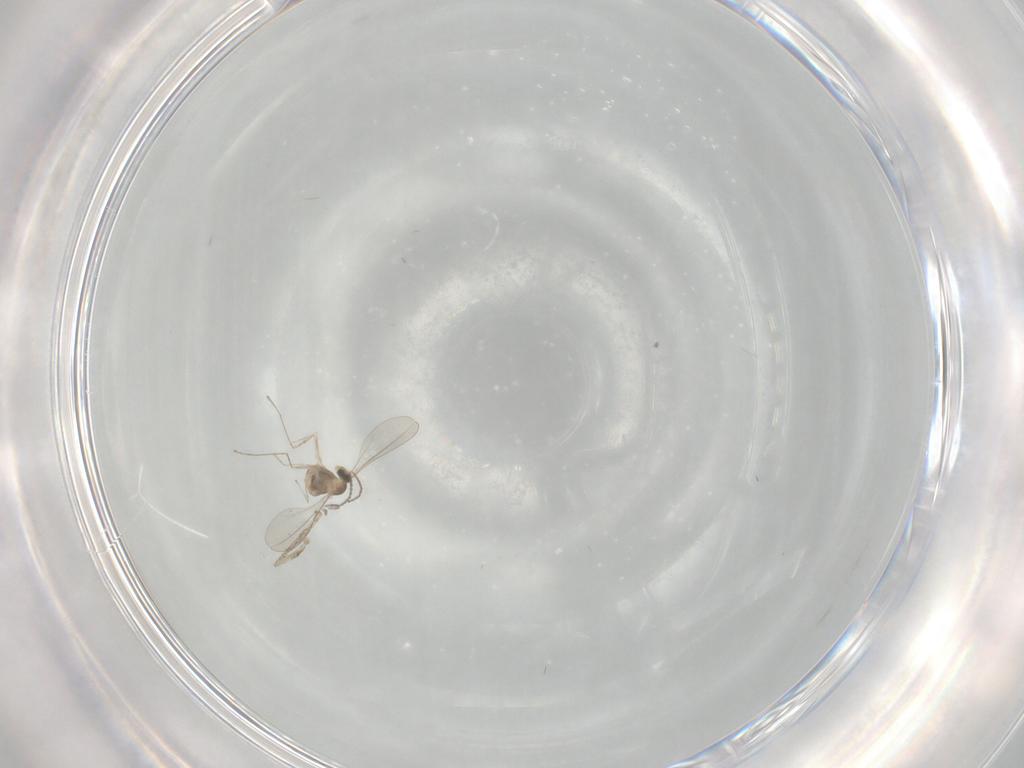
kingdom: Animalia
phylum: Arthropoda
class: Insecta
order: Diptera
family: Cecidomyiidae
